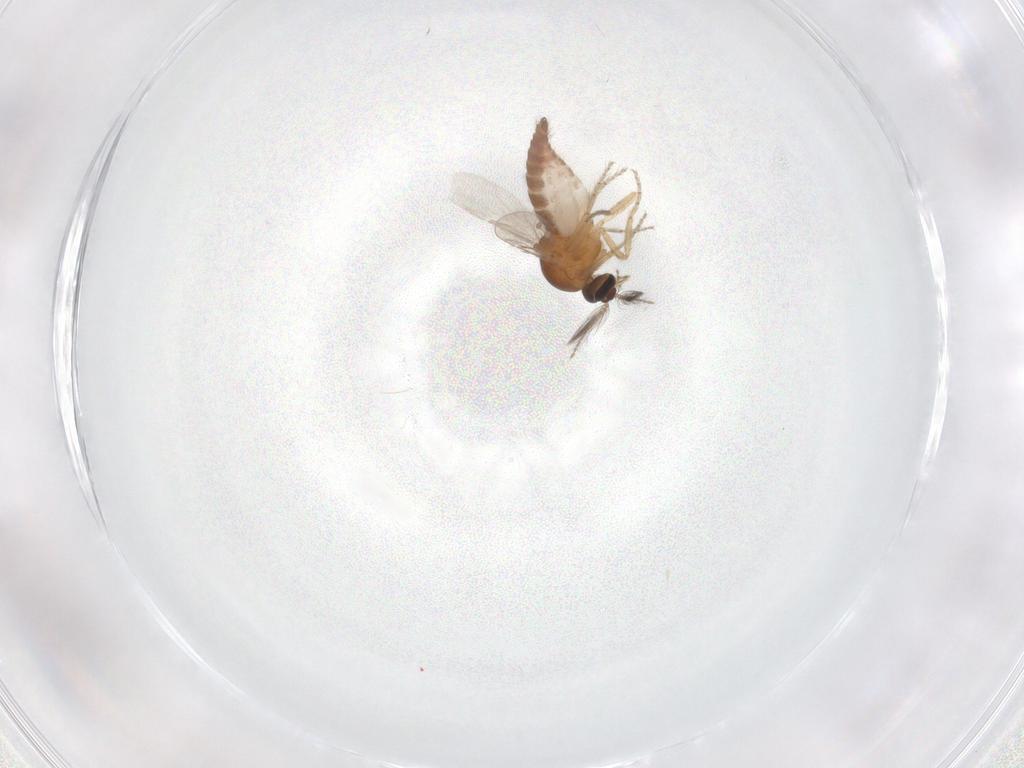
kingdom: Animalia
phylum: Arthropoda
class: Insecta
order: Diptera
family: Ceratopogonidae
